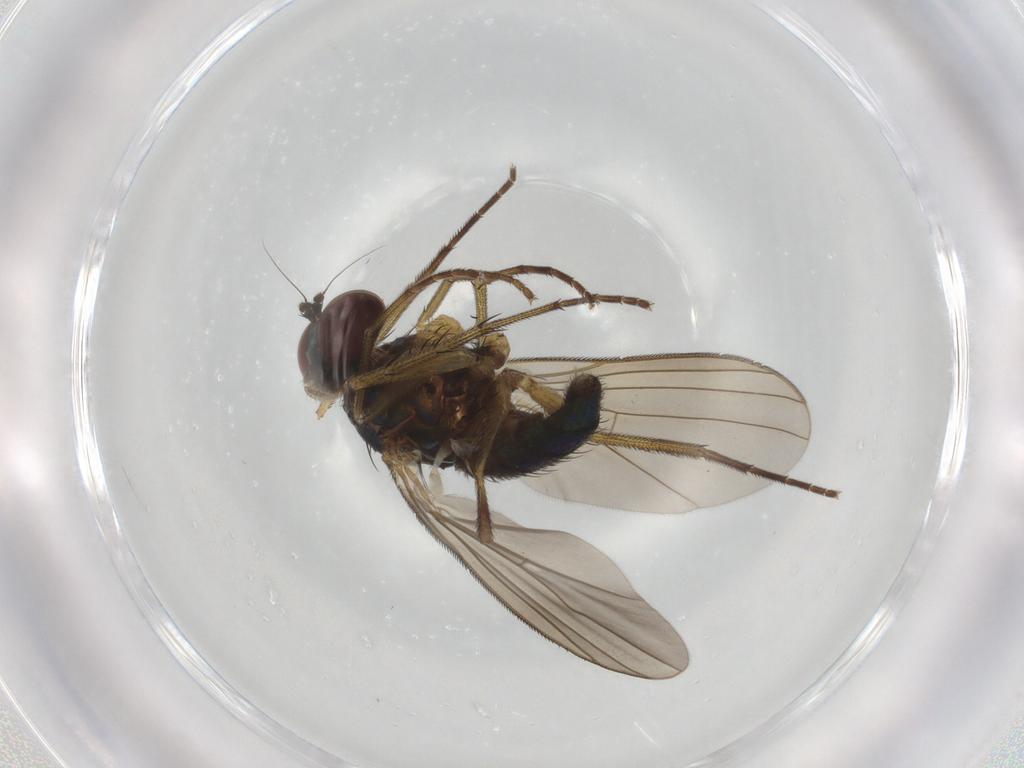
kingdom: Animalia
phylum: Arthropoda
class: Insecta
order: Diptera
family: Dolichopodidae
